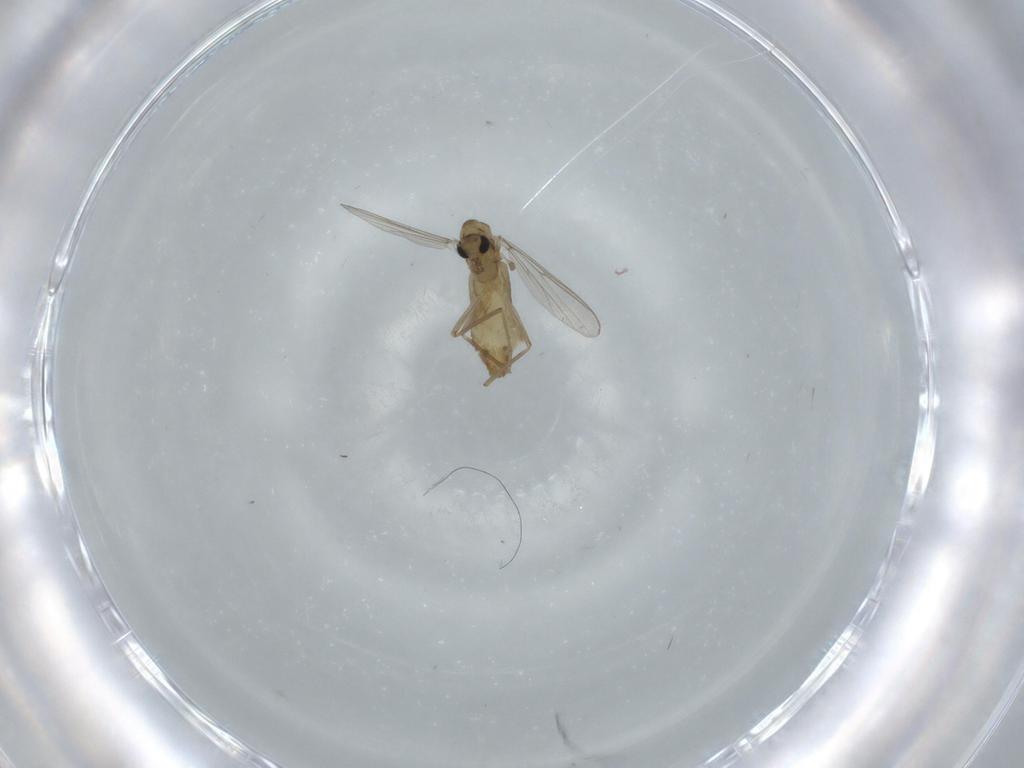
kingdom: Animalia
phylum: Arthropoda
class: Insecta
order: Diptera
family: Chironomidae
